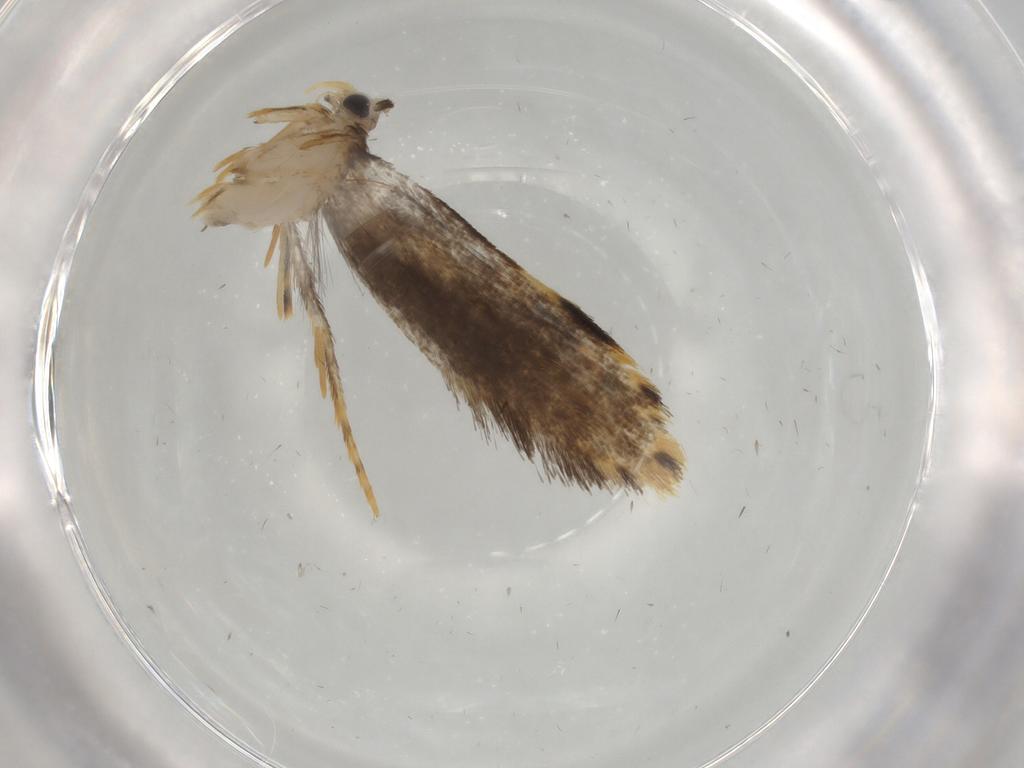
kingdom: Animalia
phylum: Arthropoda
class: Insecta
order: Lepidoptera
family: Tineidae
